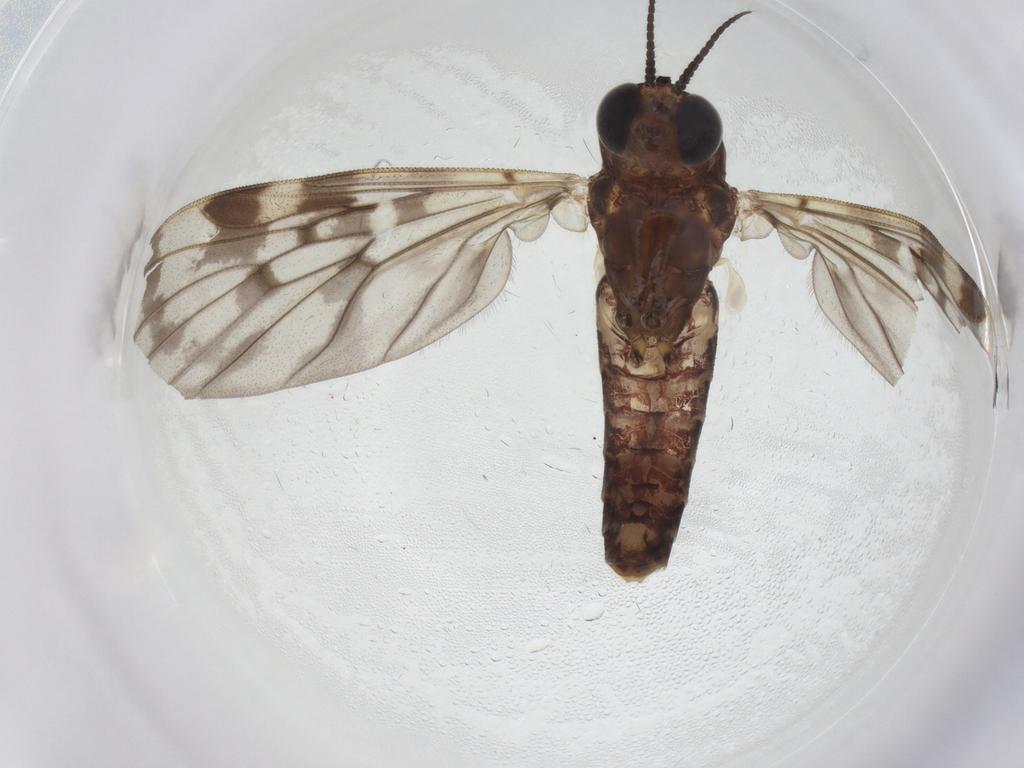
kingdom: Animalia
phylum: Arthropoda
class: Insecta
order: Diptera
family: Chironomidae
